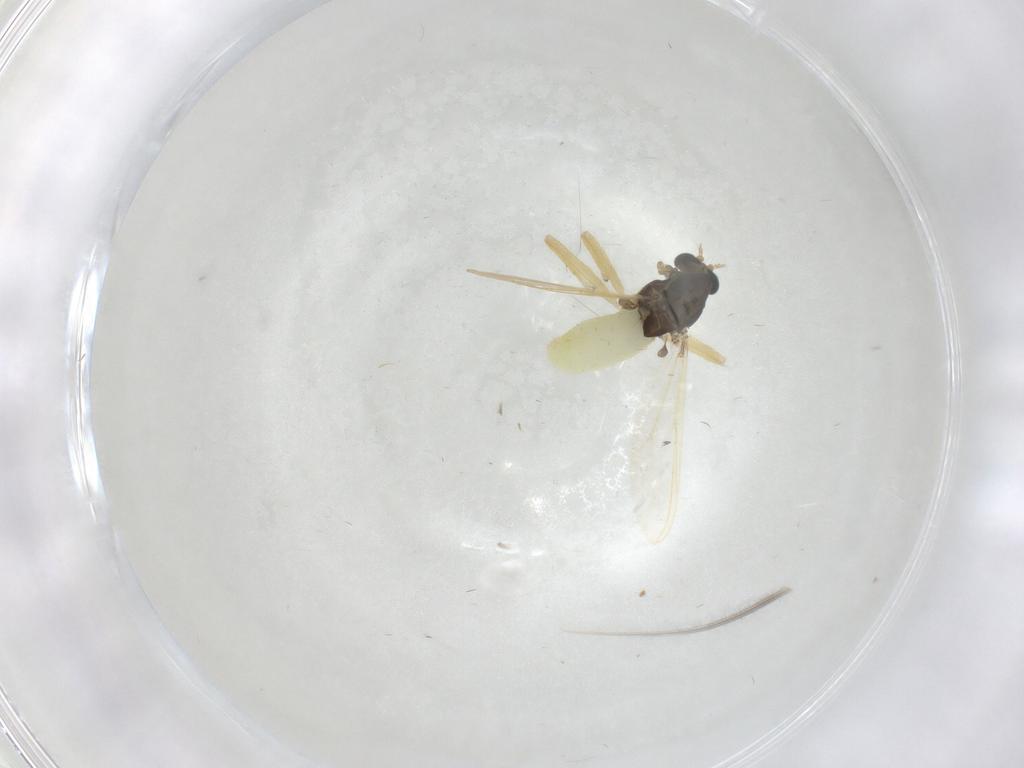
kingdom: Animalia
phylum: Arthropoda
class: Insecta
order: Diptera
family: Chironomidae
